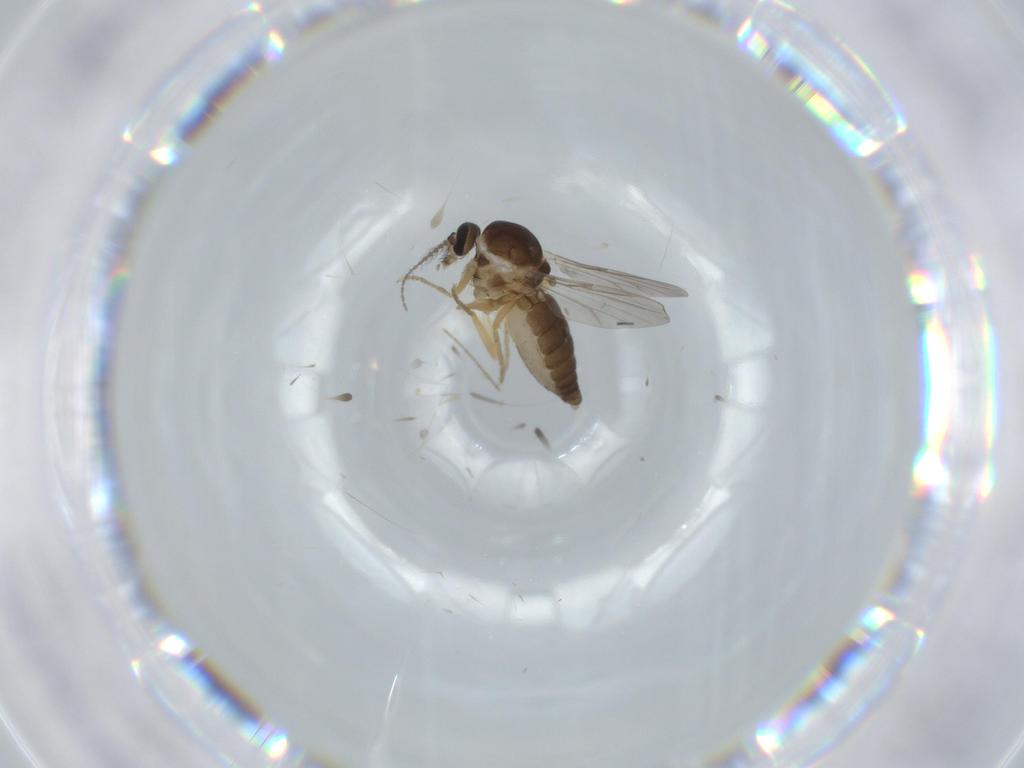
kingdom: Animalia
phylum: Arthropoda
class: Insecta
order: Diptera
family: Ceratopogonidae
